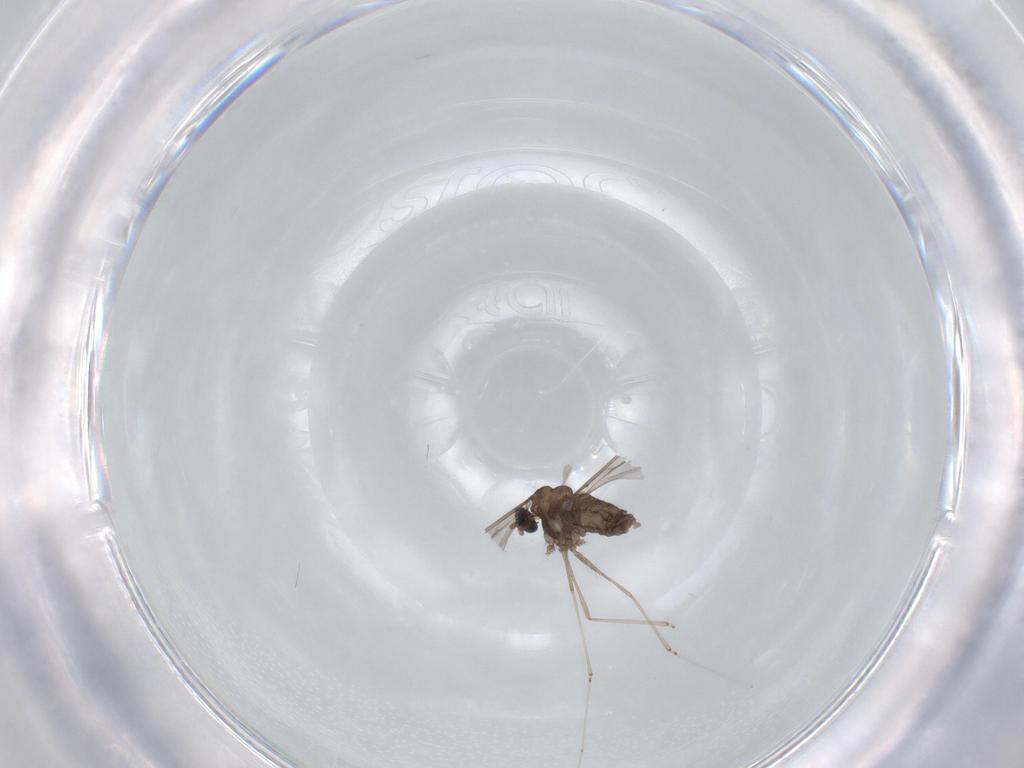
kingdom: Animalia
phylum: Arthropoda
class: Insecta
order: Diptera
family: Cecidomyiidae
